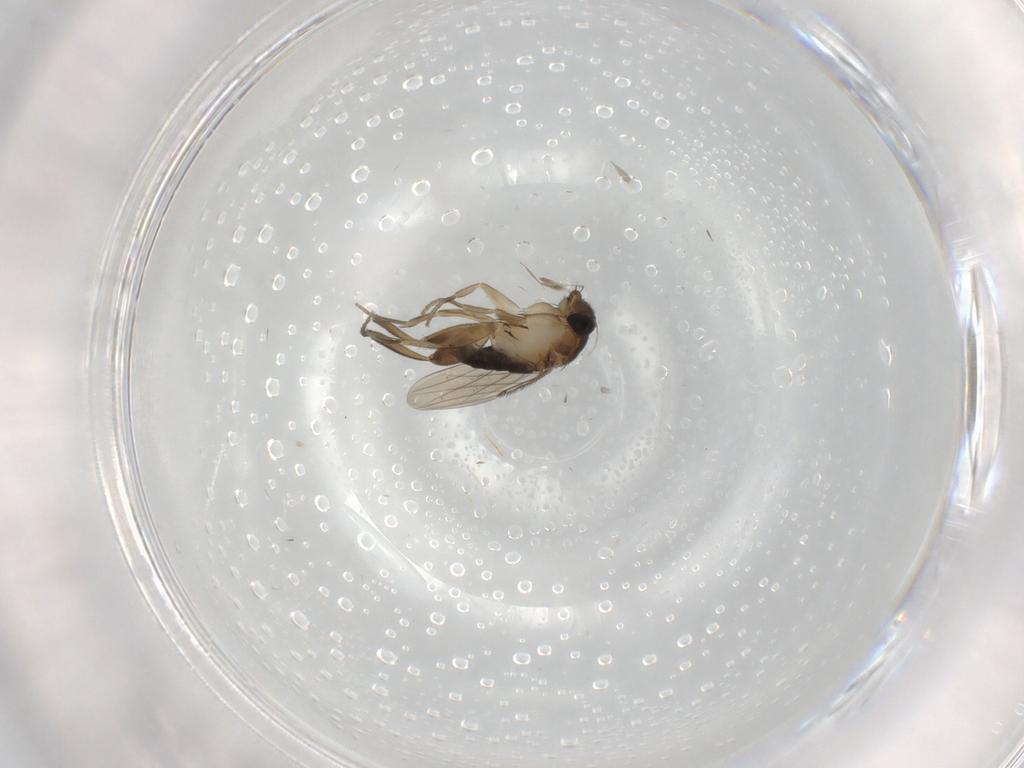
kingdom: Animalia
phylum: Arthropoda
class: Insecta
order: Diptera
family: Phoridae
